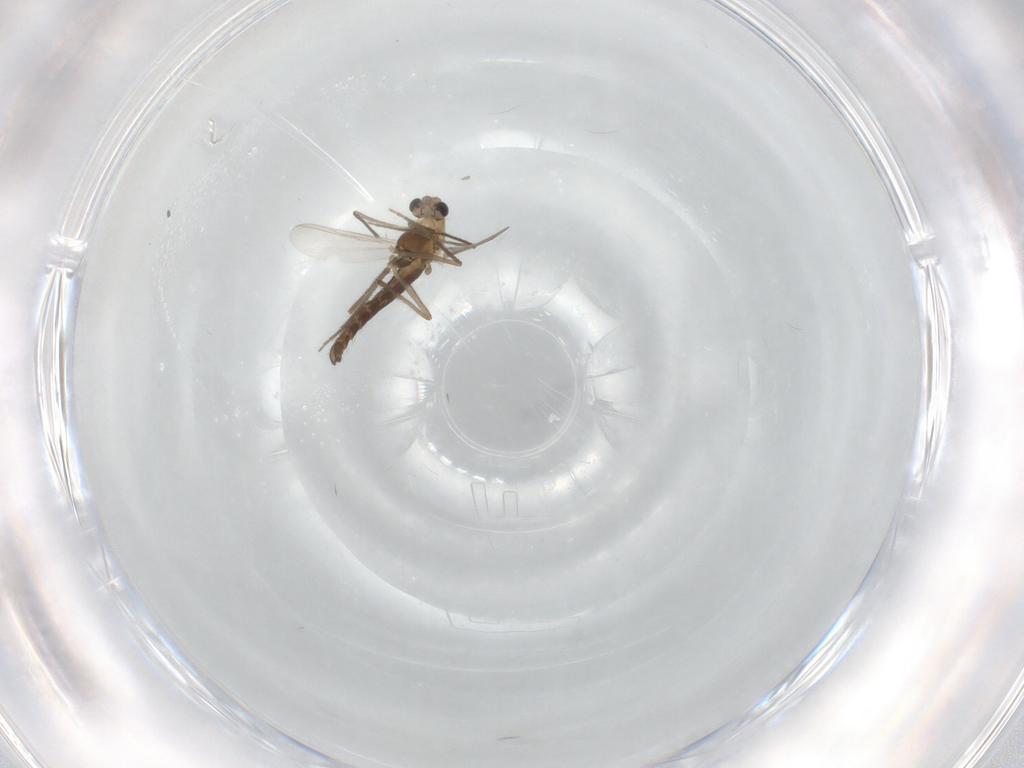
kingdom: Animalia
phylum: Arthropoda
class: Insecta
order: Diptera
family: Chironomidae
